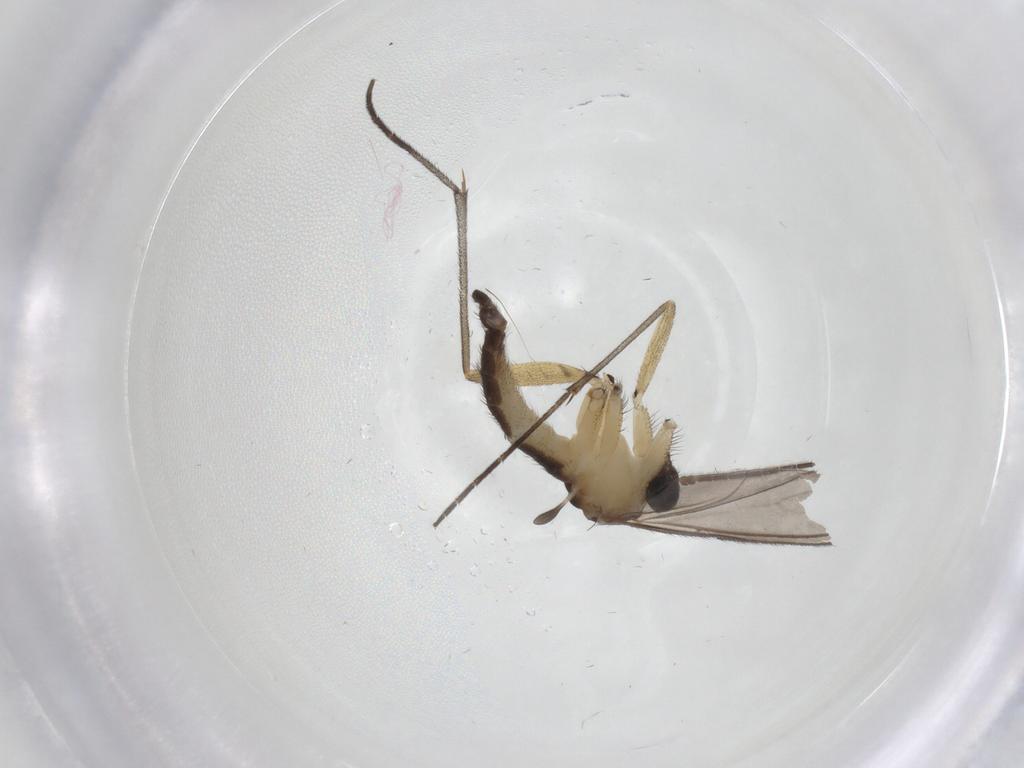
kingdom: Animalia
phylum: Arthropoda
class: Insecta
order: Diptera
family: Sciaridae
